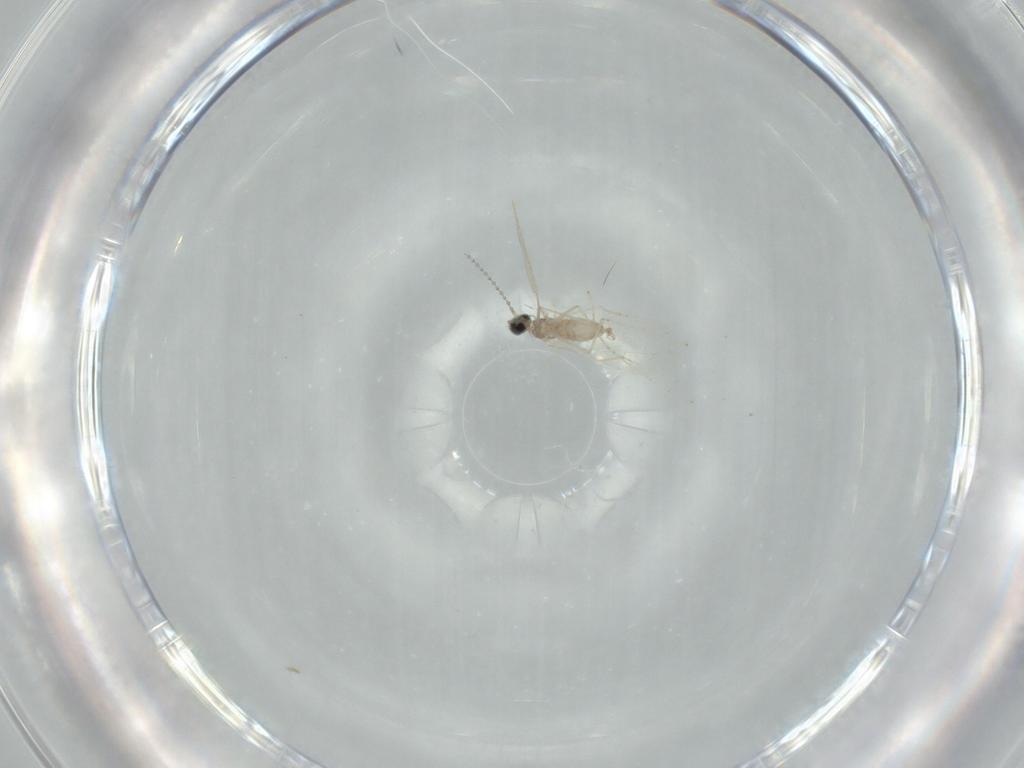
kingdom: Animalia
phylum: Arthropoda
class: Insecta
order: Diptera
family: Cecidomyiidae
